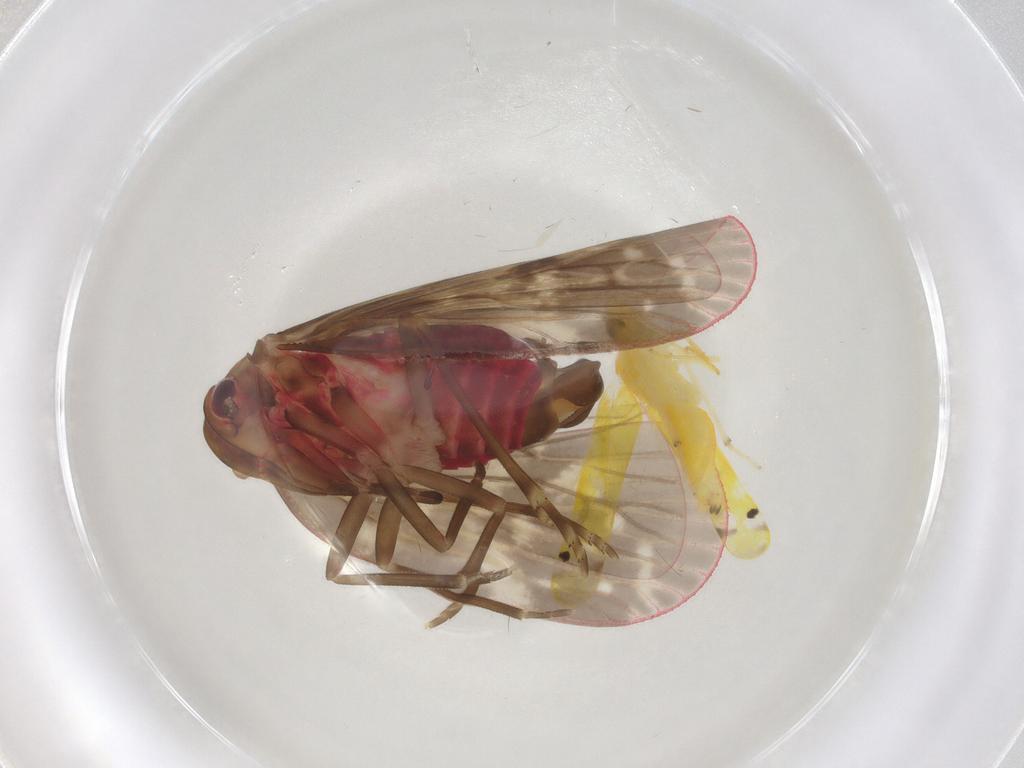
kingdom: Animalia
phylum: Arthropoda
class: Insecta
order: Hemiptera
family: Achilidae
